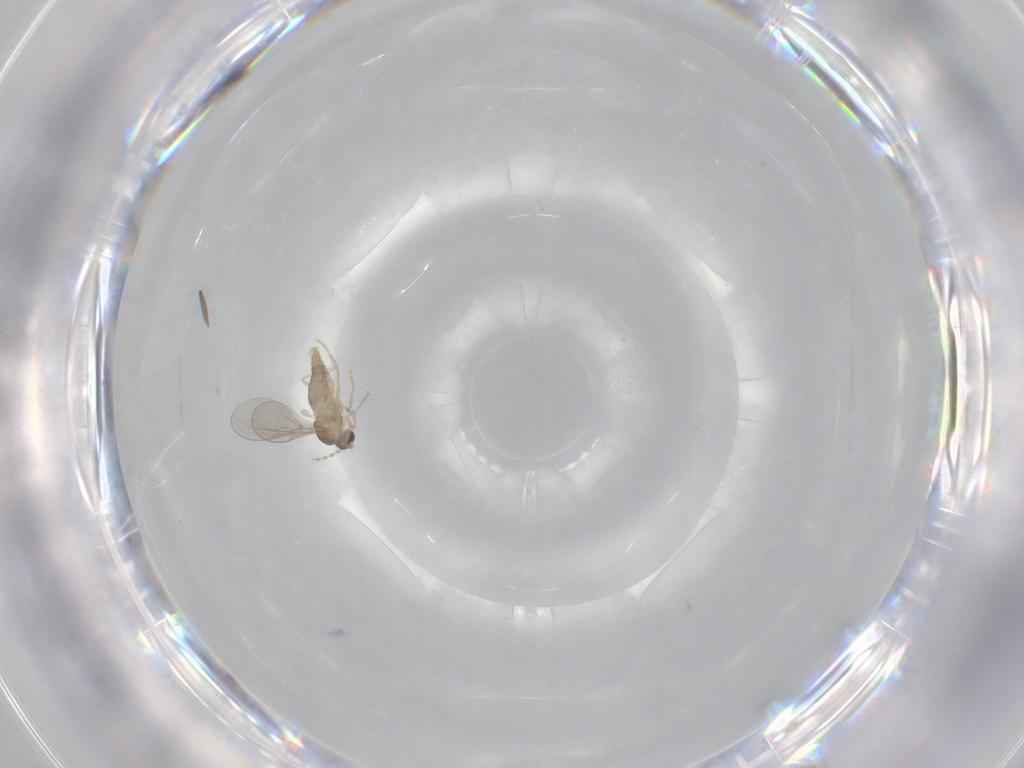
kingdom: Animalia
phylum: Arthropoda
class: Insecta
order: Diptera
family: Cecidomyiidae
